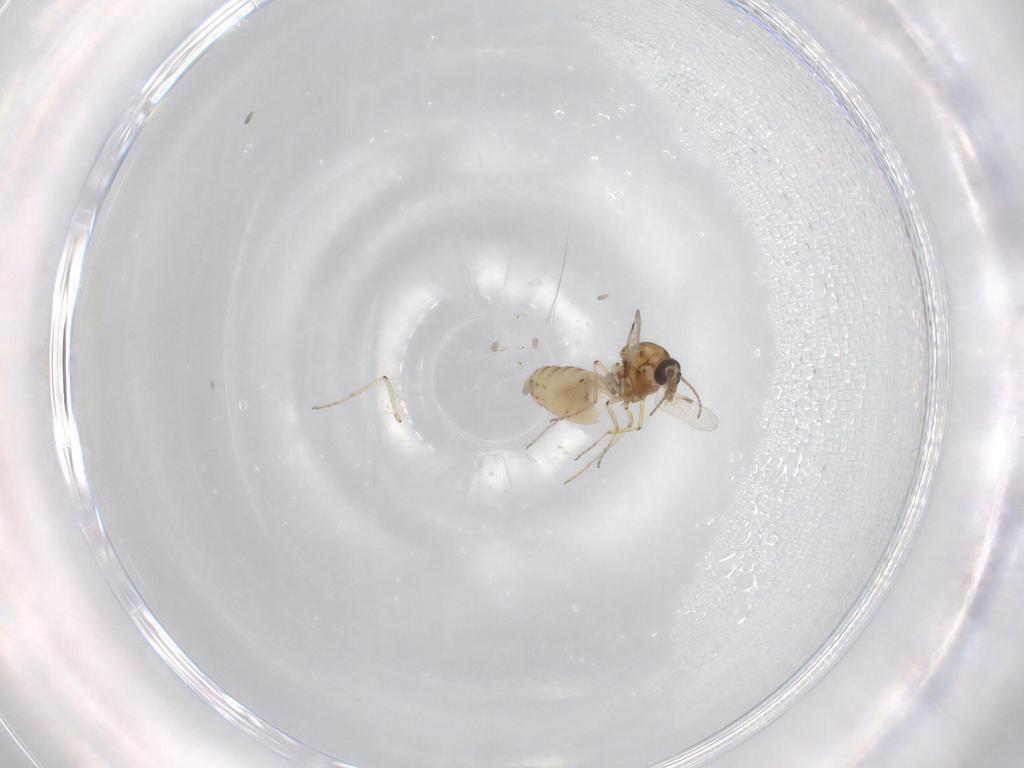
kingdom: Animalia
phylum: Arthropoda
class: Insecta
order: Diptera
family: Ceratopogonidae
